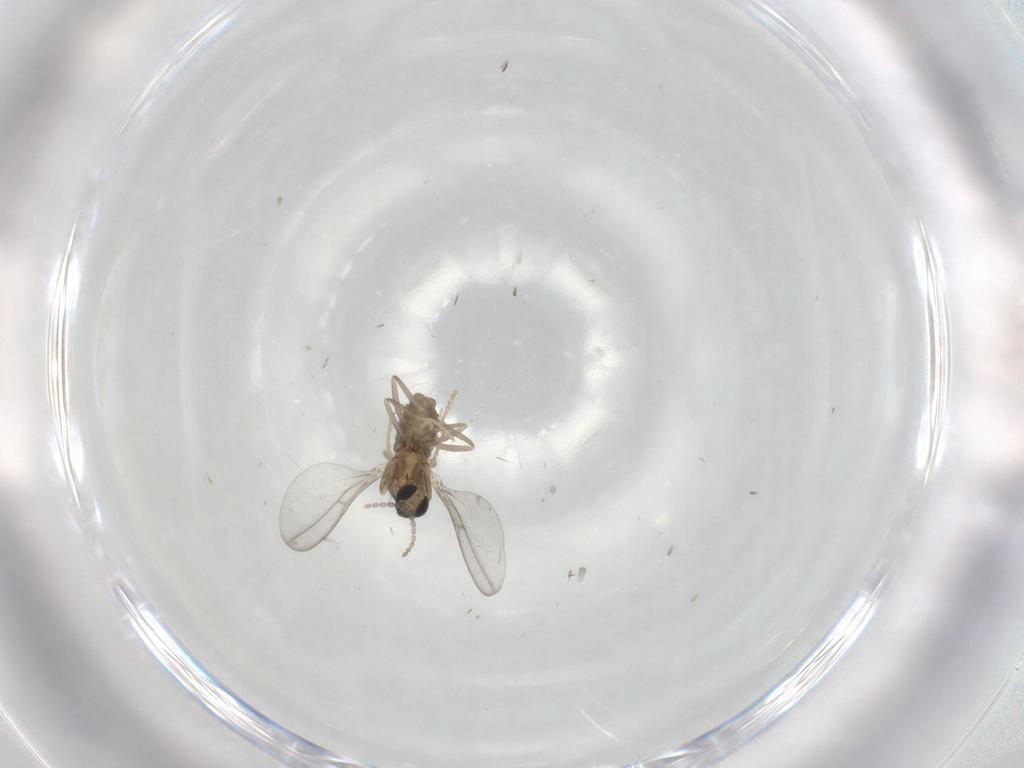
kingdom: Animalia
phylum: Arthropoda
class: Insecta
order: Diptera
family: Cecidomyiidae
